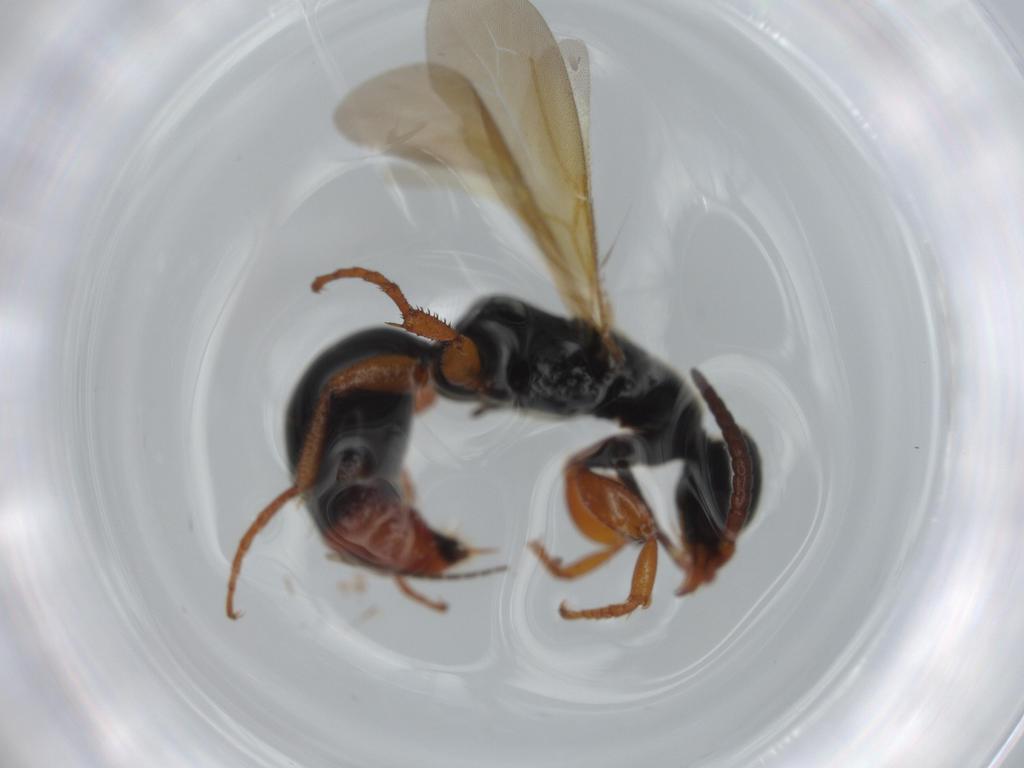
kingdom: Animalia
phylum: Arthropoda
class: Insecta
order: Hymenoptera
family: Bethylidae
